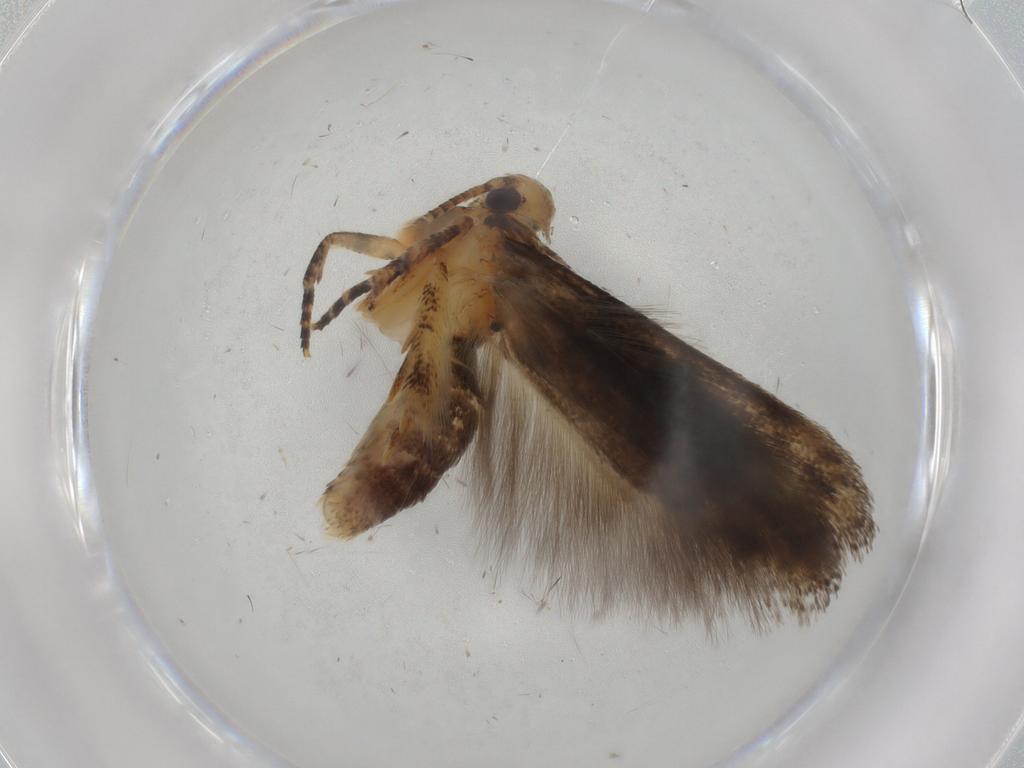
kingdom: Animalia
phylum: Arthropoda
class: Insecta
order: Lepidoptera
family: Gelechiidae
